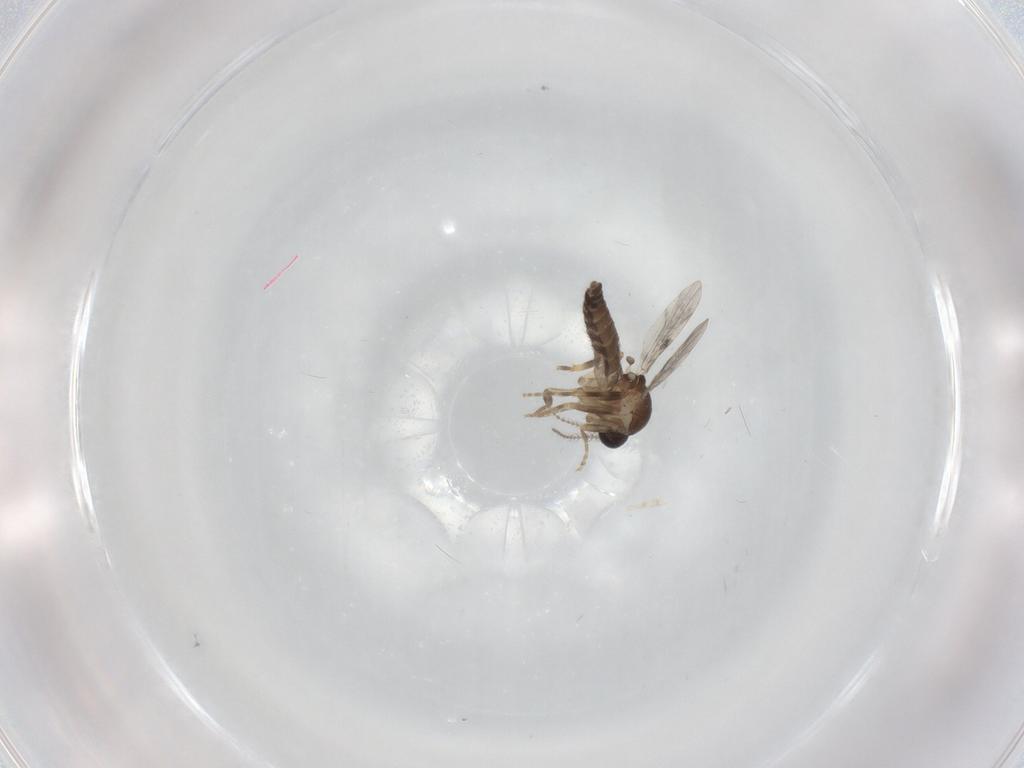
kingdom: Animalia
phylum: Arthropoda
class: Insecta
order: Diptera
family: Ceratopogonidae
